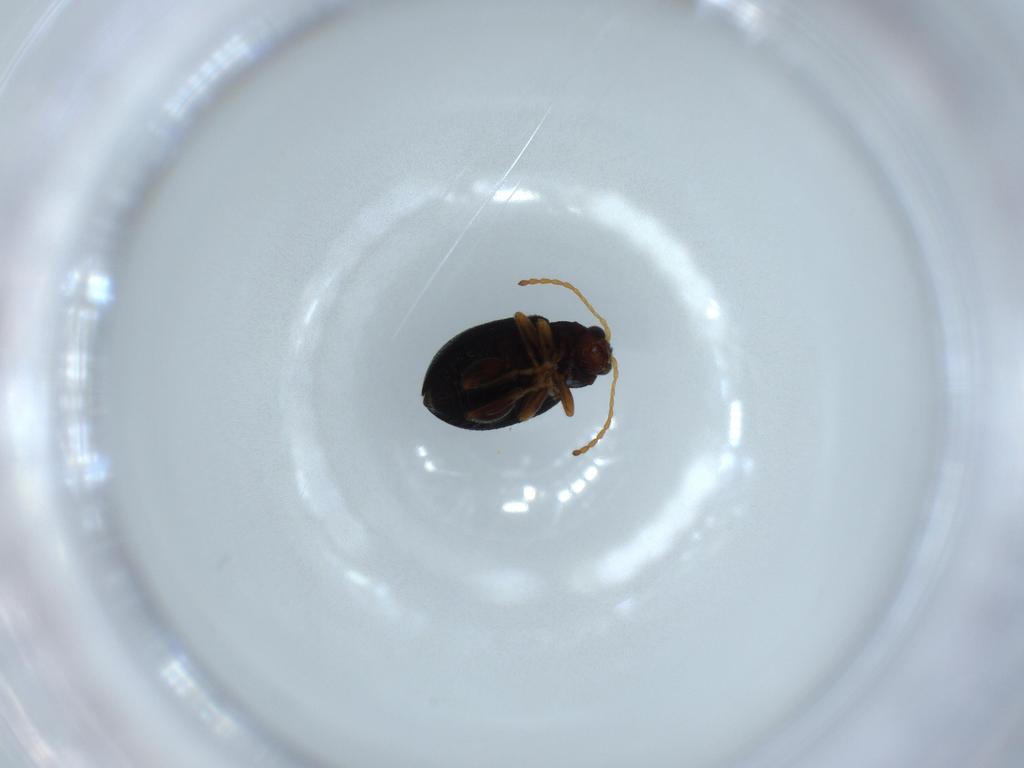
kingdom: Animalia
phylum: Arthropoda
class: Insecta
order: Coleoptera
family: Chrysomelidae
